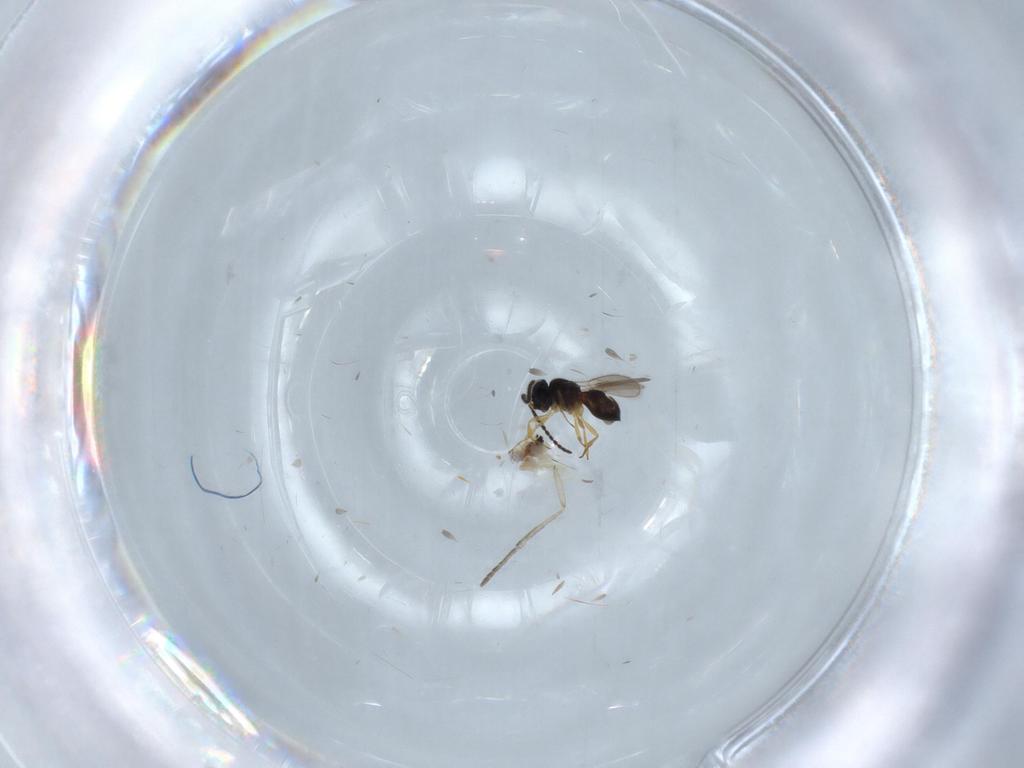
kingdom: Animalia
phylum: Arthropoda
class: Insecta
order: Hymenoptera
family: Scelionidae
